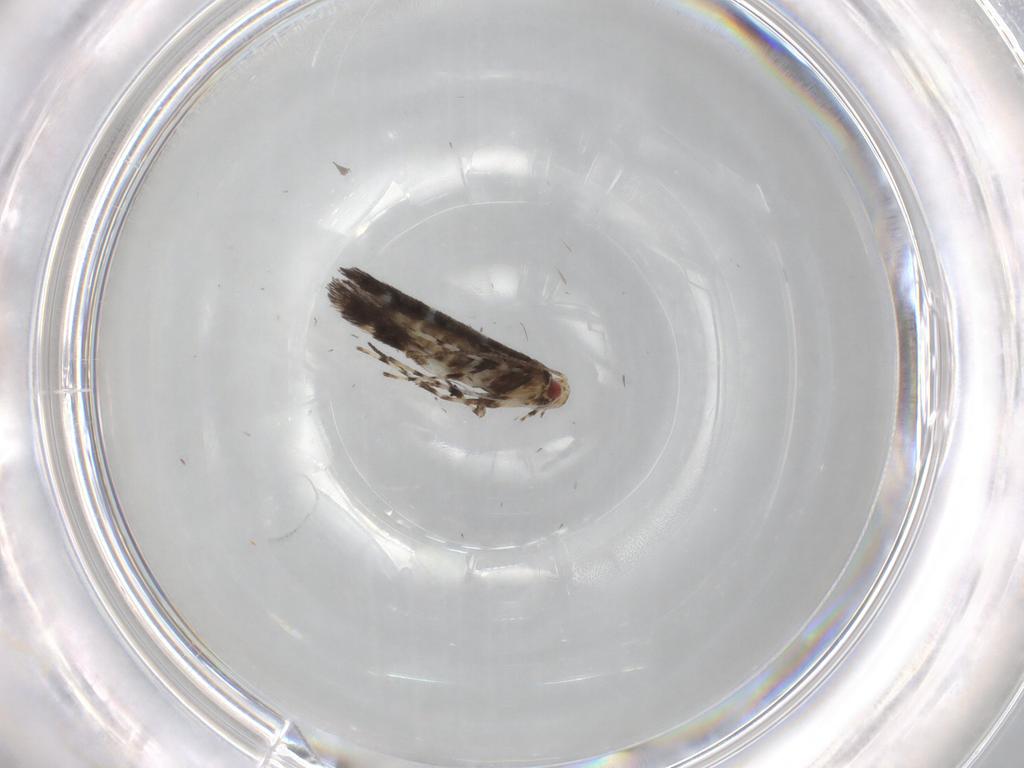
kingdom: Animalia
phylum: Arthropoda
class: Insecta
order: Lepidoptera
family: Gracillariidae
